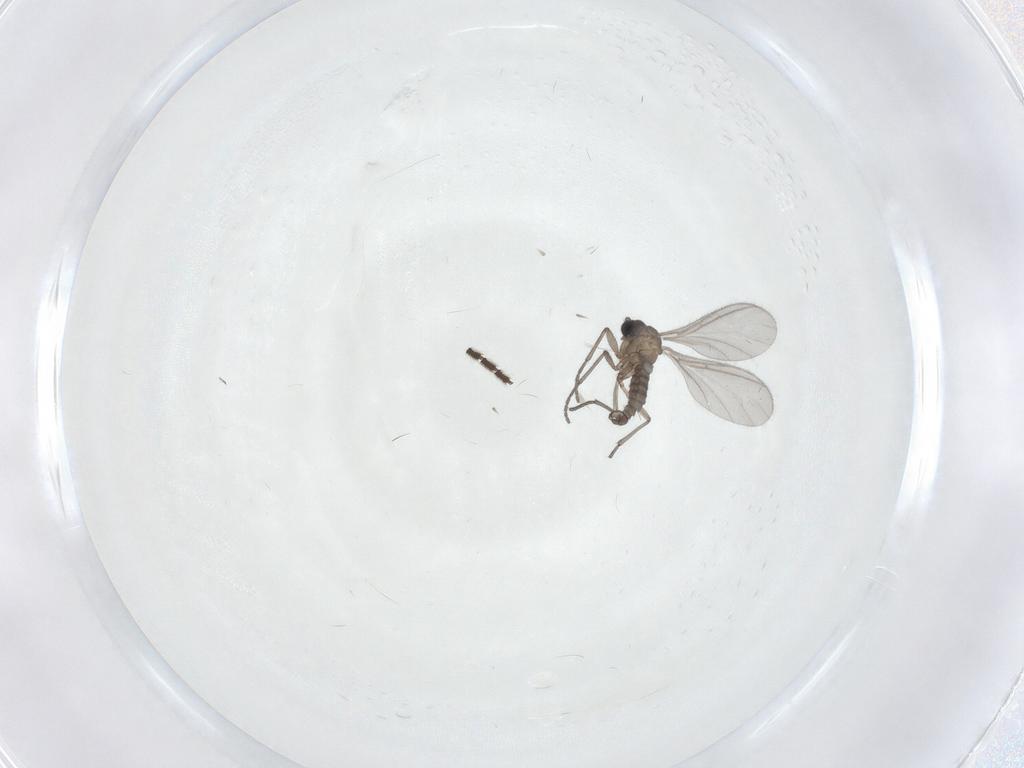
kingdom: Animalia
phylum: Arthropoda
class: Insecta
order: Diptera
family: Sciaridae
